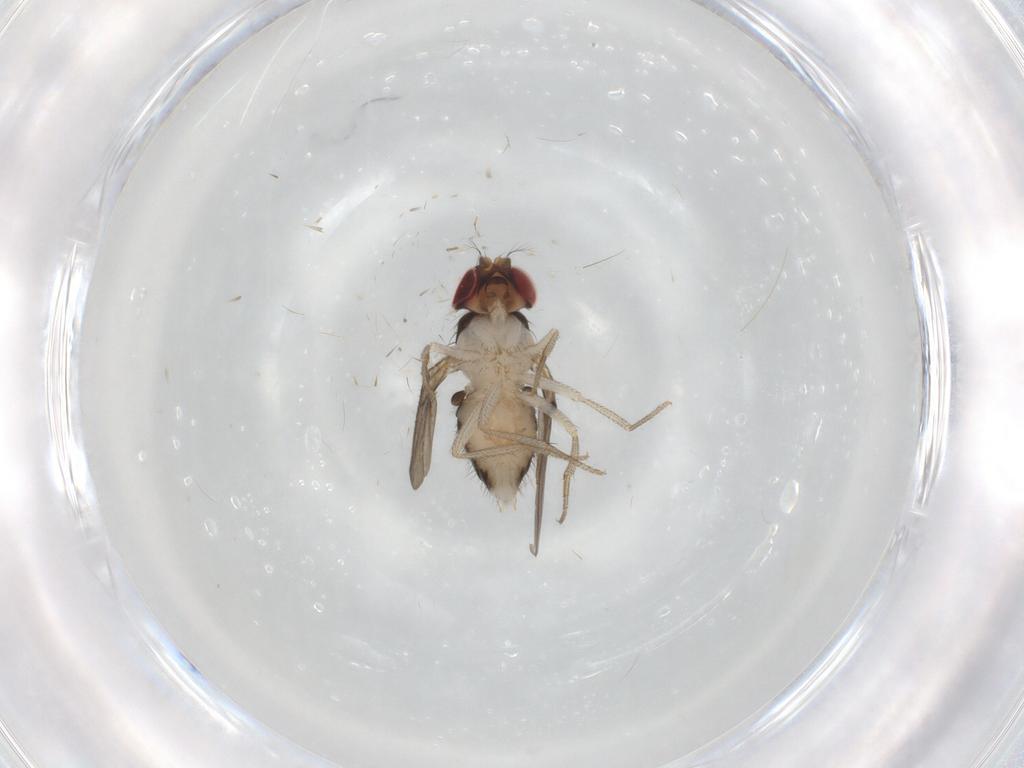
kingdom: Animalia
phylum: Arthropoda
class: Insecta
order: Diptera
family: Drosophilidae
